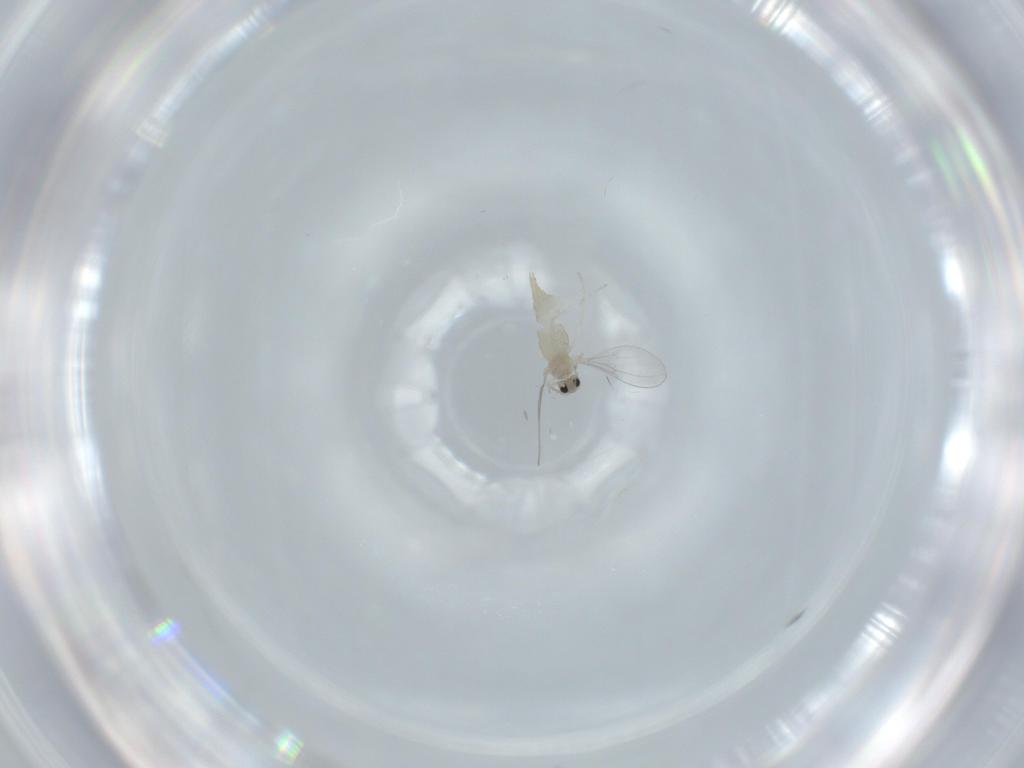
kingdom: Animalia
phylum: Arthropoda
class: Insecta
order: Diptera
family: Cecidomyiidae
